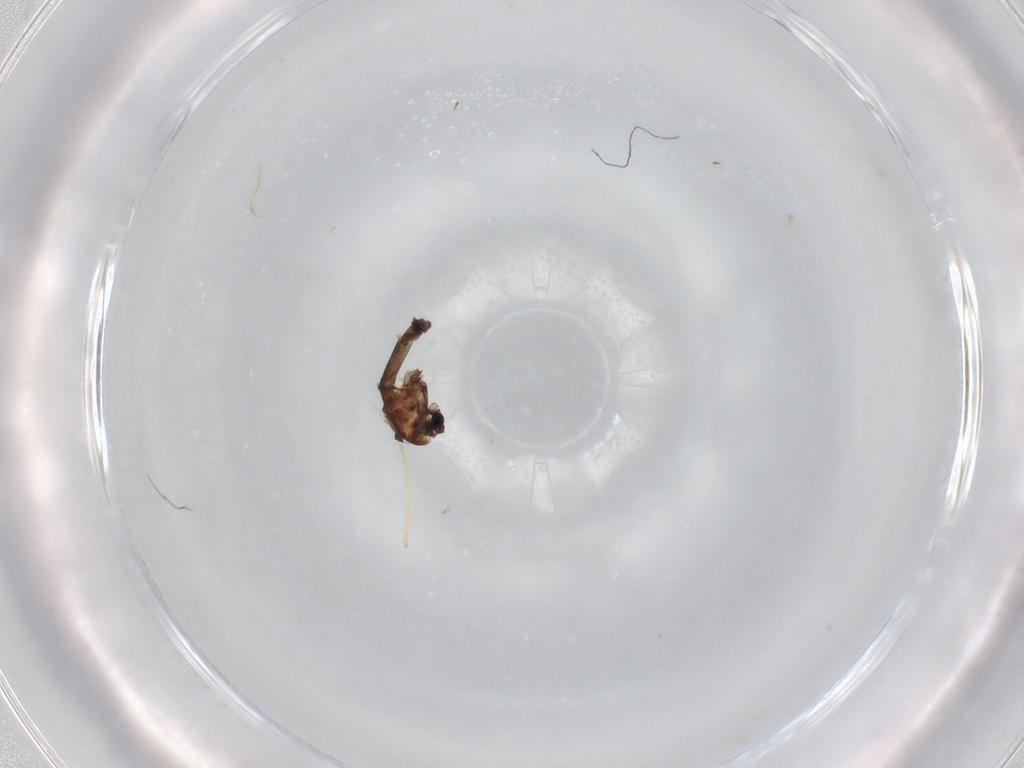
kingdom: Animalia
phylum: Arthropoda
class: Insecta
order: Diptera
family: Chironomidae
